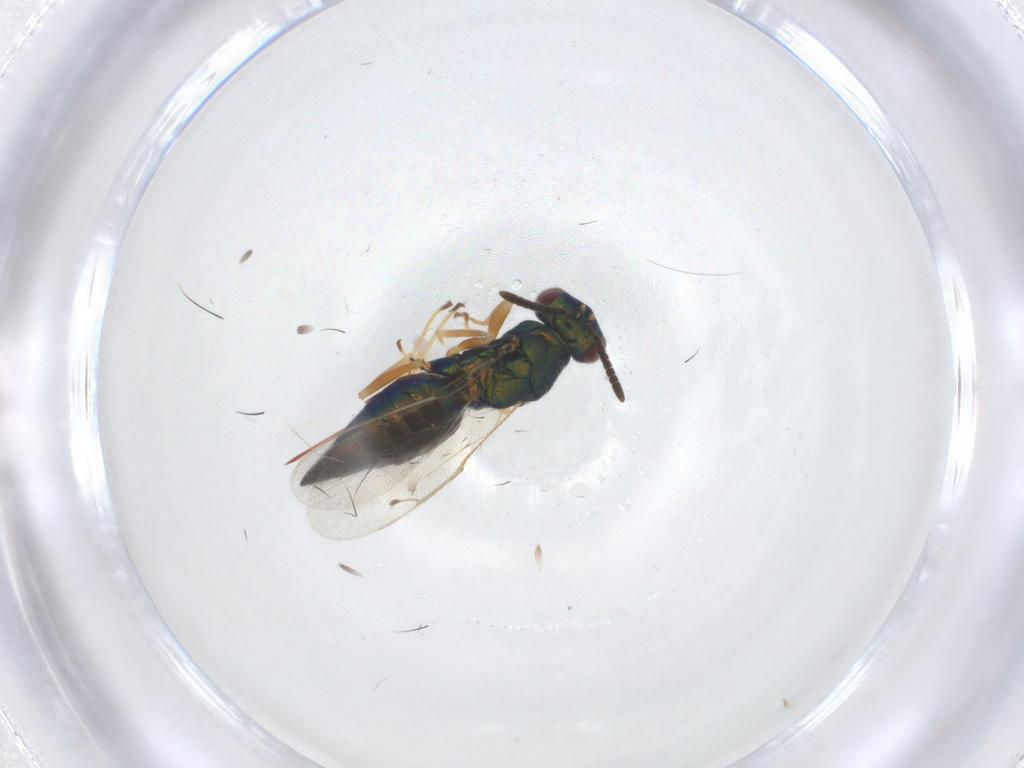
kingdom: Animalia
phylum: Arthropoda
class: Insecta
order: Hymenoptera
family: Pteromalidae
